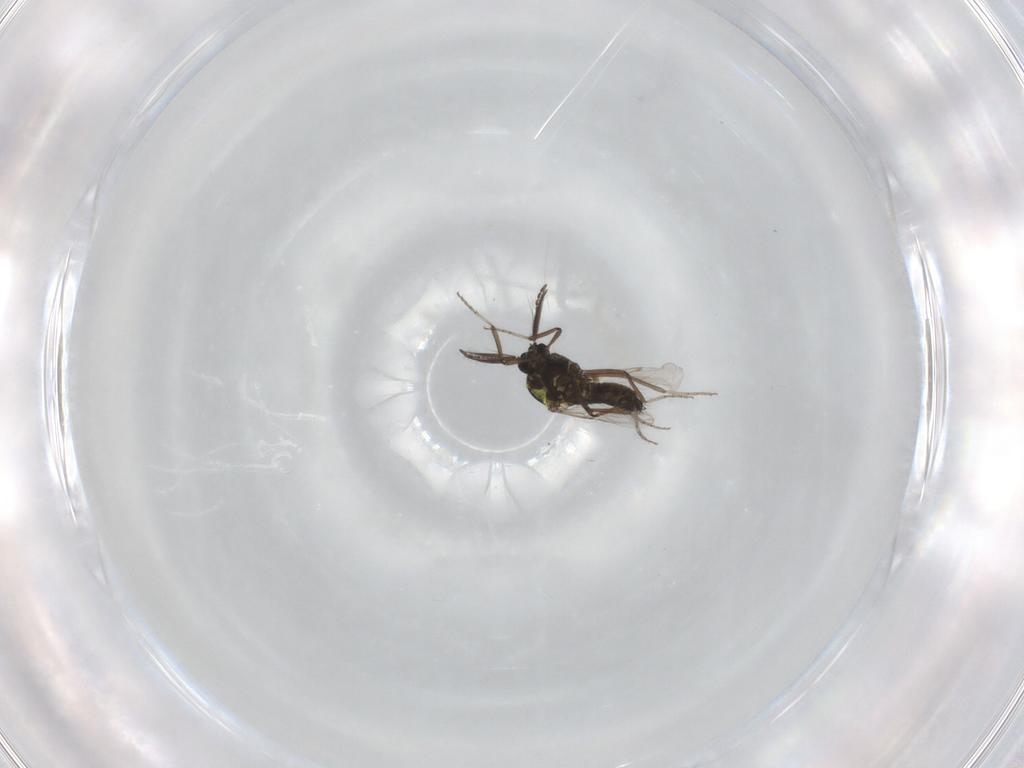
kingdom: Animalia
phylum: Arthropoda
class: Insecta
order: Diptera
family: Ceratopogonidae
